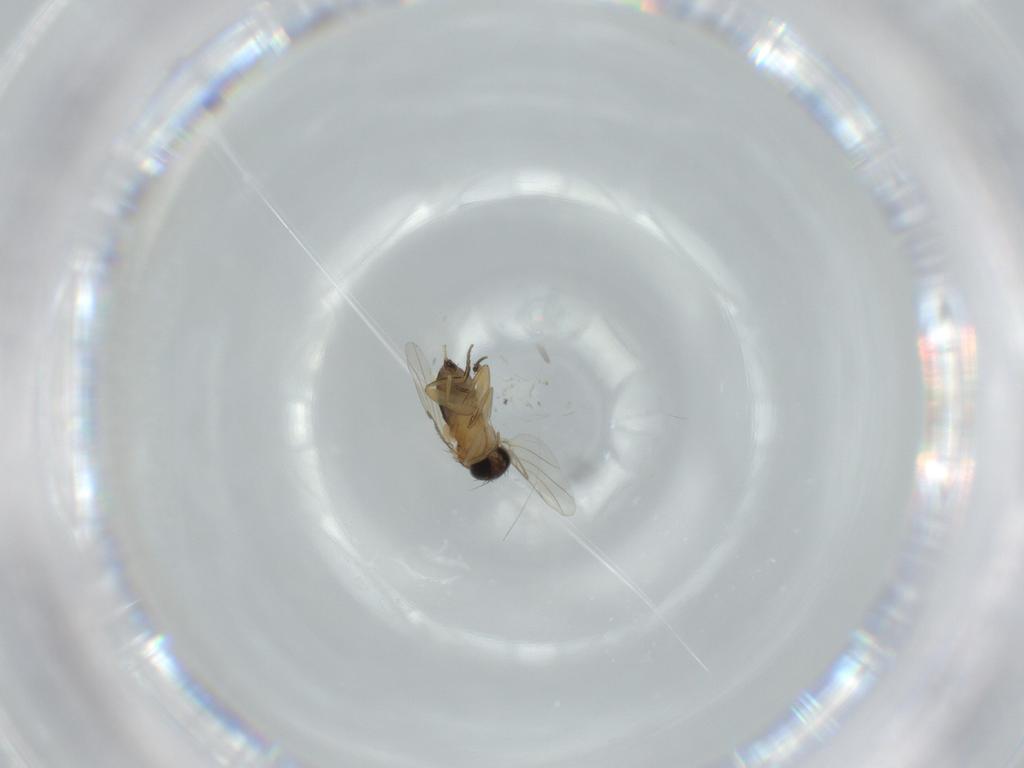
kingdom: Animalia
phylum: Arthropoda
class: Insecta
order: Diptera
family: Phoridae
